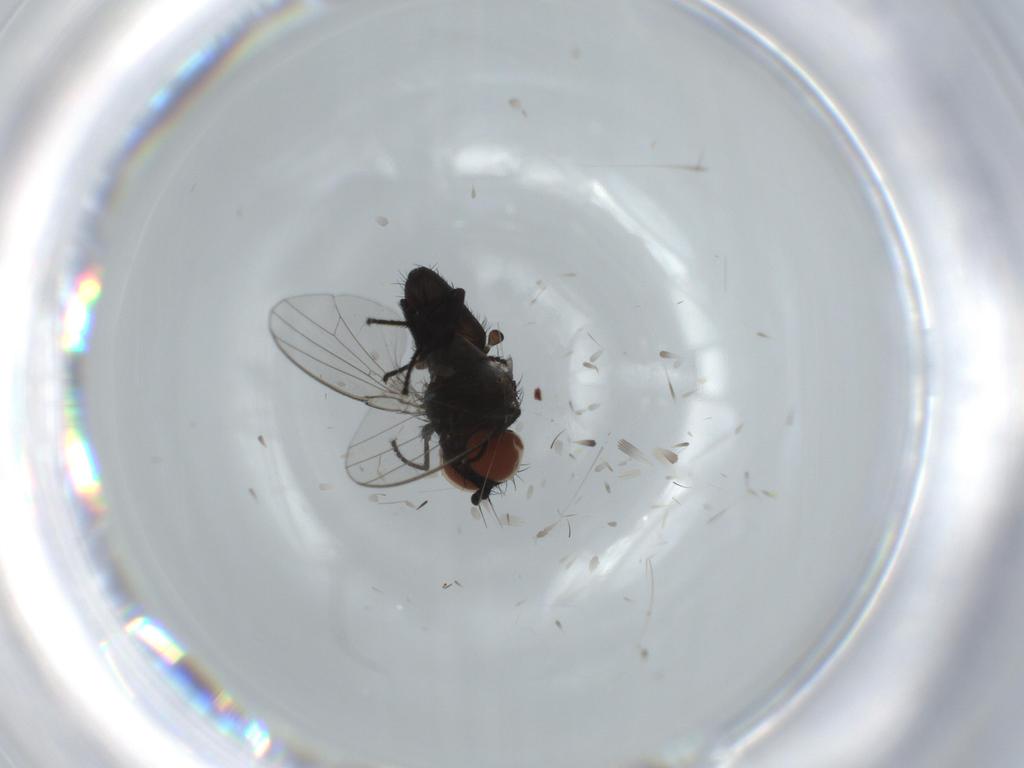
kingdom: Animalia
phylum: Arthropoda
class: Insecta
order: Diptera
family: Milichiidae
